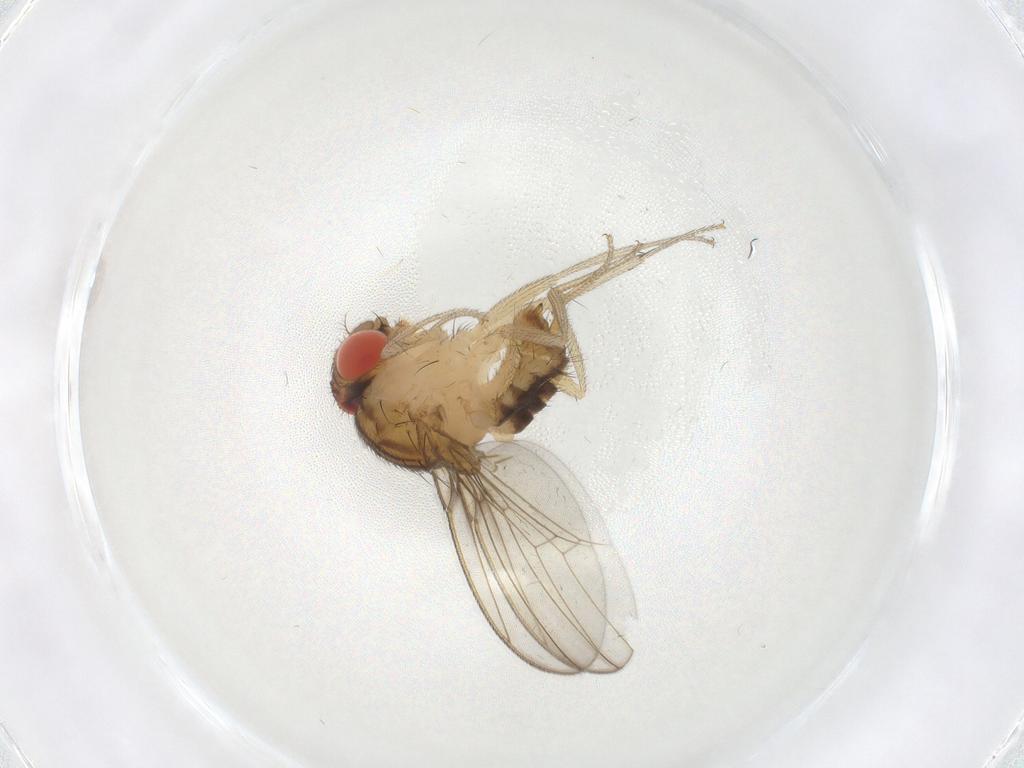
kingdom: Animalia
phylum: Arthropoda
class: Insecta
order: Diptera
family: Drosophilidae
